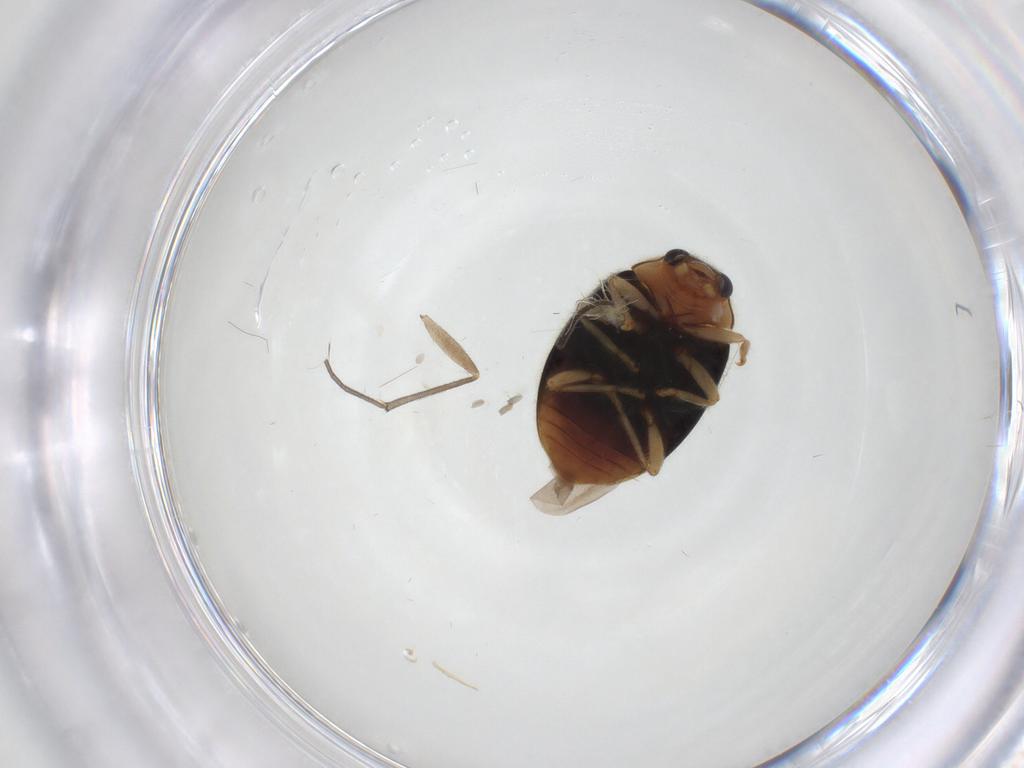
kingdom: Animalia
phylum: Arthropoda
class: Insecta
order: Coleoptera
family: Coccinellidae
